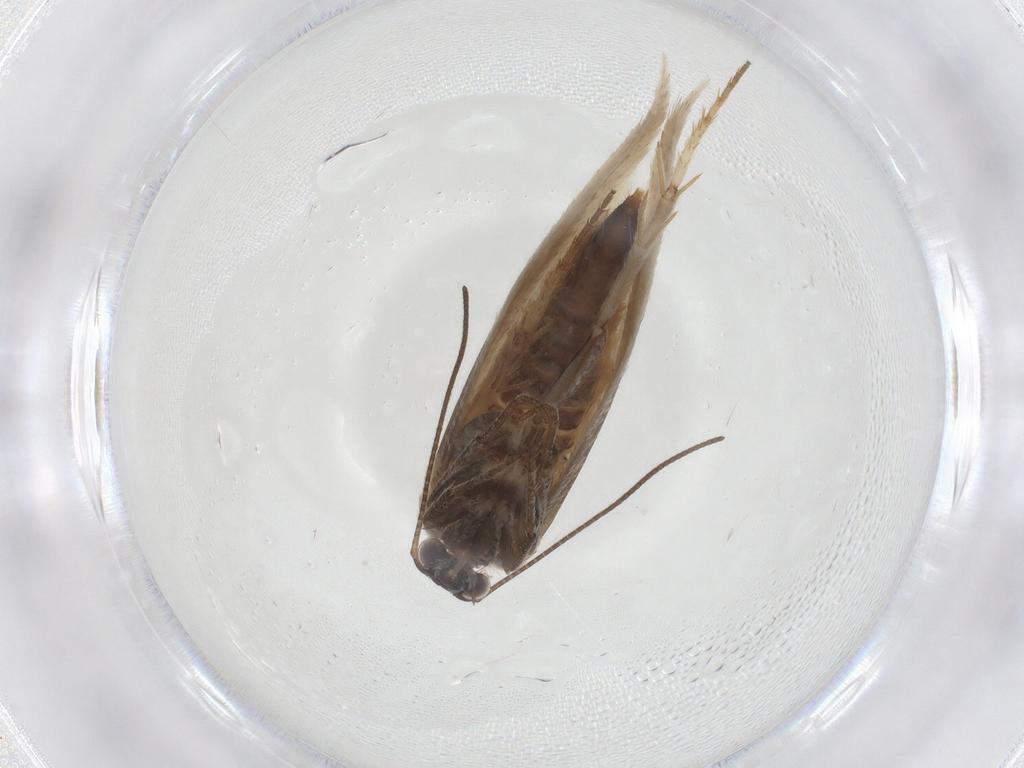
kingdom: Animalia
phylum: Arthropoda
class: Insecta
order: Lepidoptera
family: Tridentaformidae
